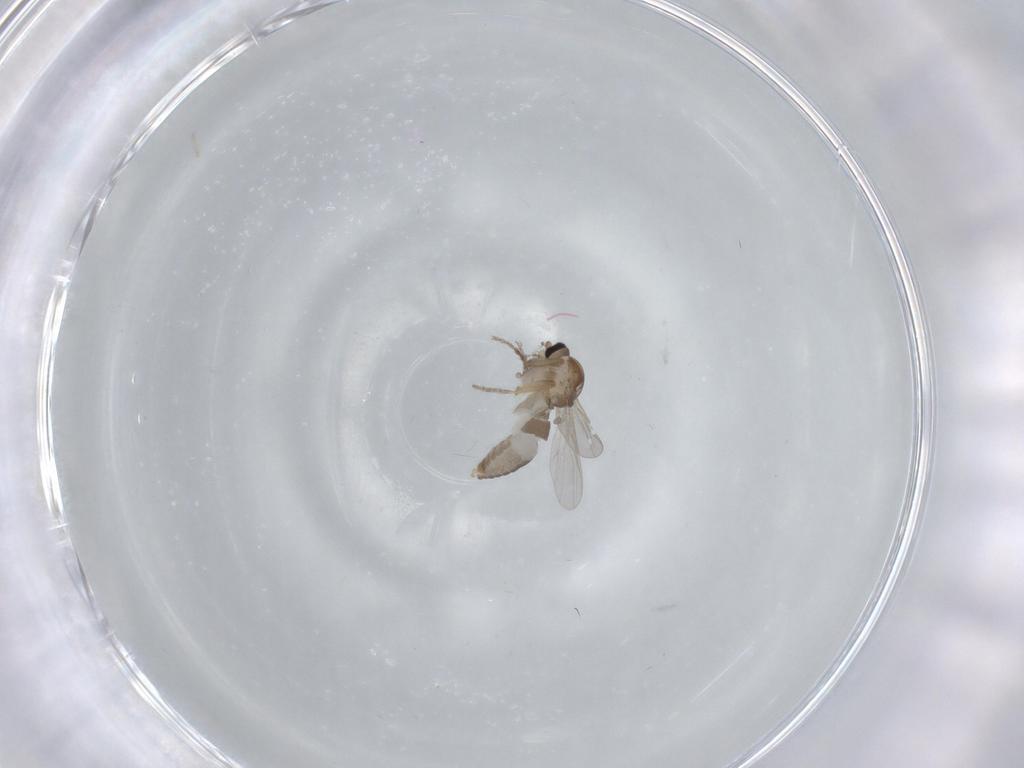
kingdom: Animalia
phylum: Arthropoda
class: Insecta
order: Diptera
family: Ceratopogonidae
